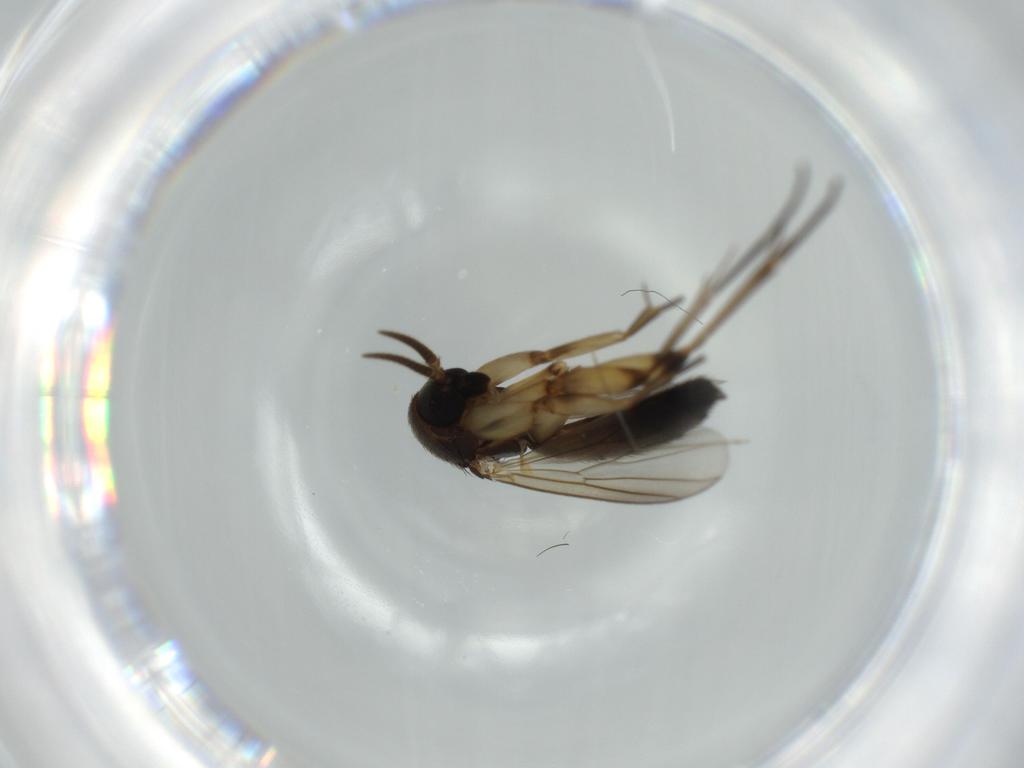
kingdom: Animalia
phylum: Arthropoda
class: Insecta
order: Diptera
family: Mycetophilidae
